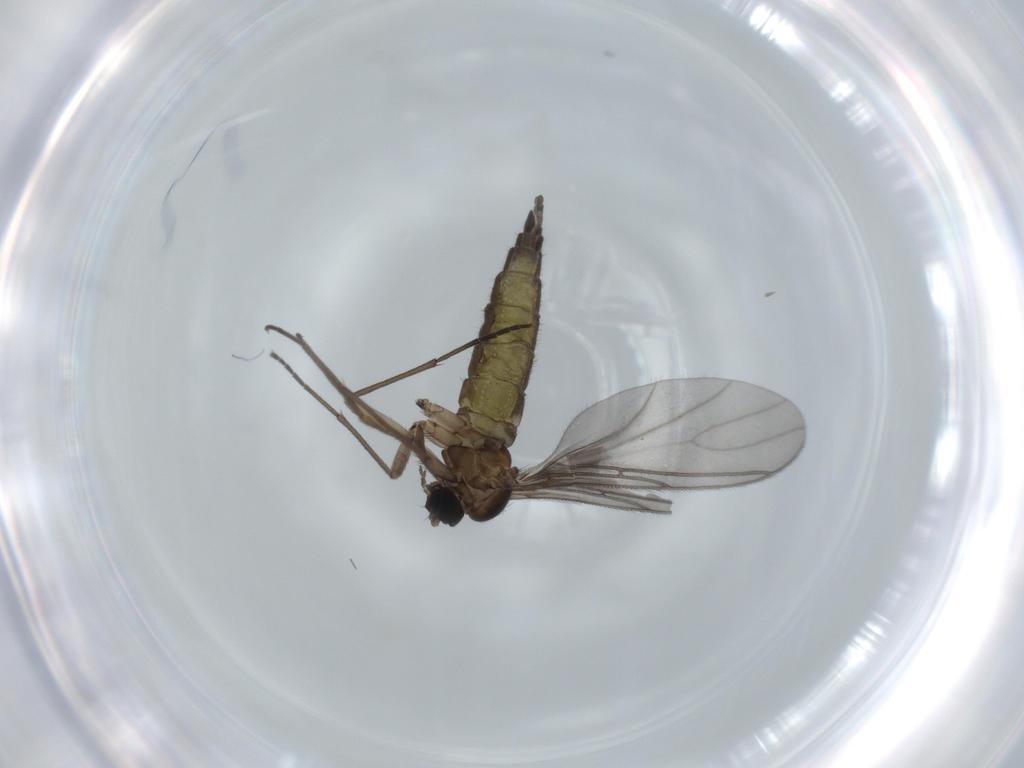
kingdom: Animalia
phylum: Arthropoda
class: Insecta
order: Diptera
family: Sciaridae
